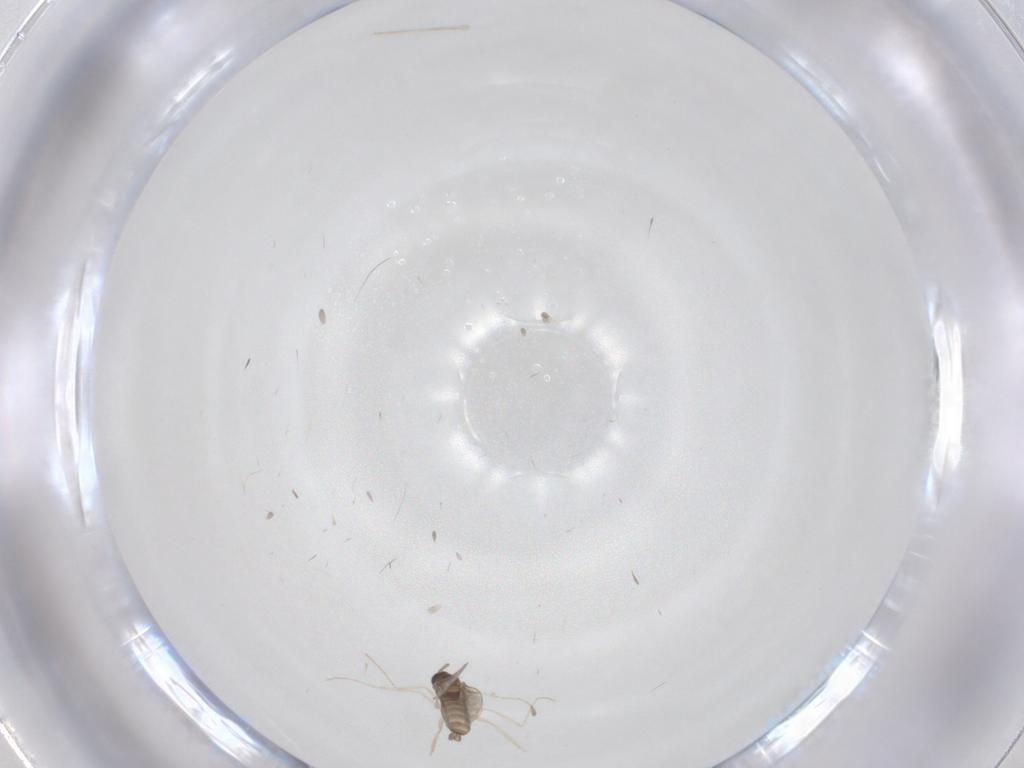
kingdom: Animalia
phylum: Arthropoda
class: Insecta
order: Diptera
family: Cecidomyiidae
